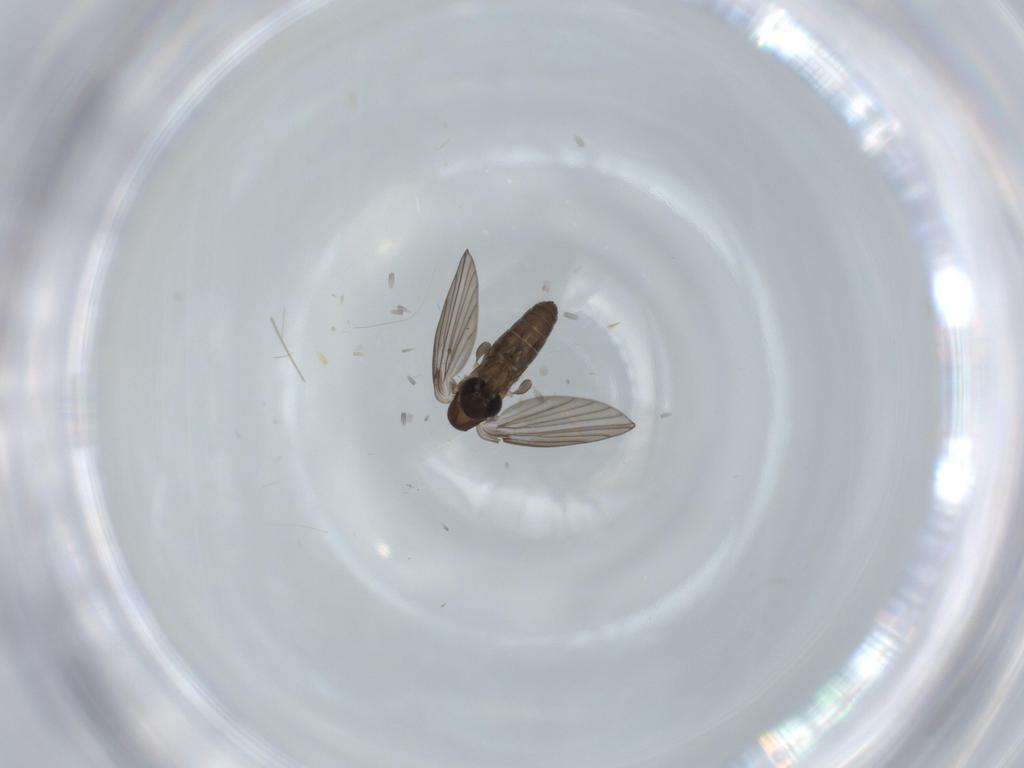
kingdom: Animalia
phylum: Arthropoda
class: Insecta
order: Diptera
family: Psychodidae
